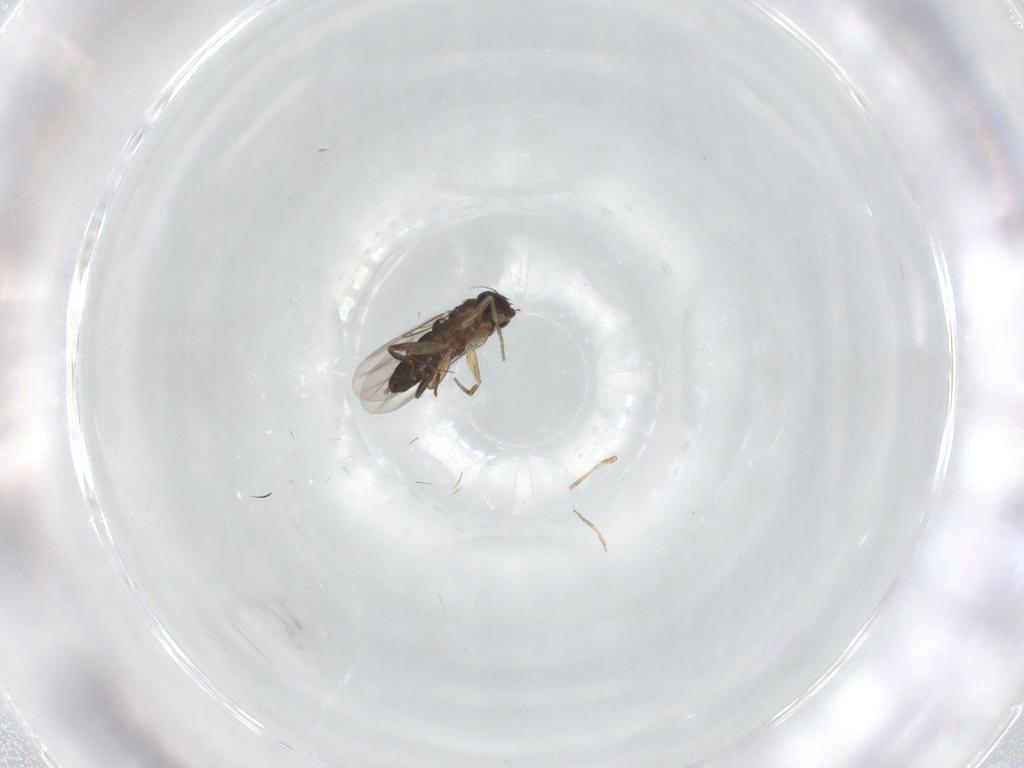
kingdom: Animalia
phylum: Arthropoda
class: Insecta
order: Diptera
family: Phoridae
